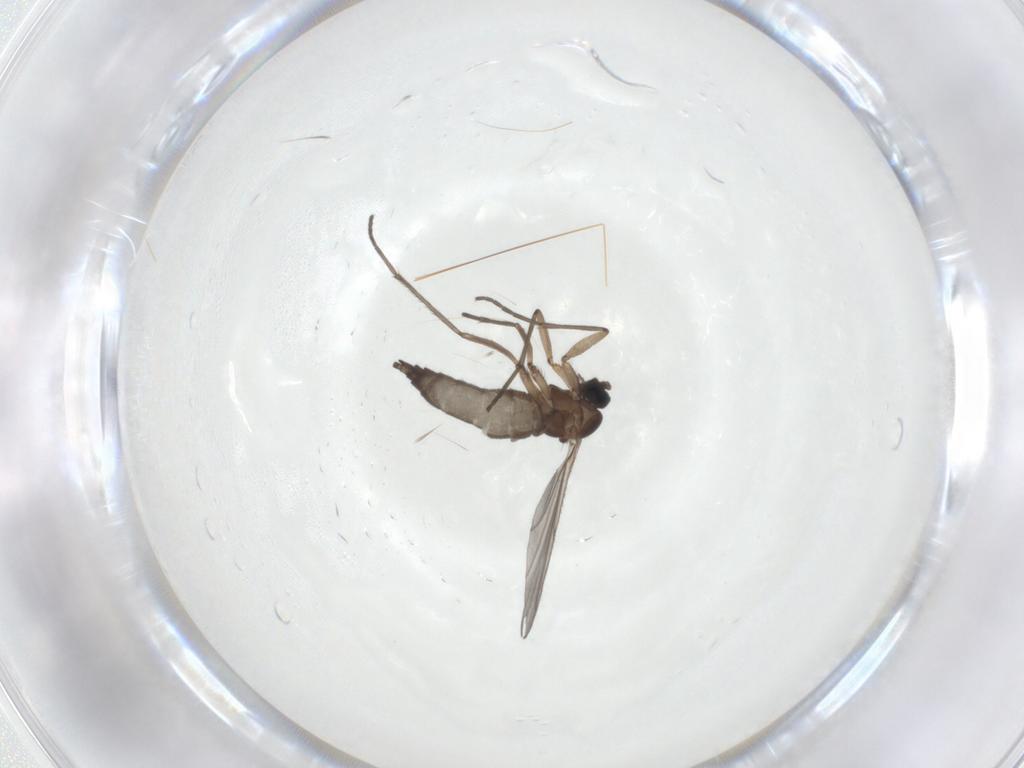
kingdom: Animalia
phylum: Arthropoda
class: Insecta
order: Diptera
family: Sciaridae
